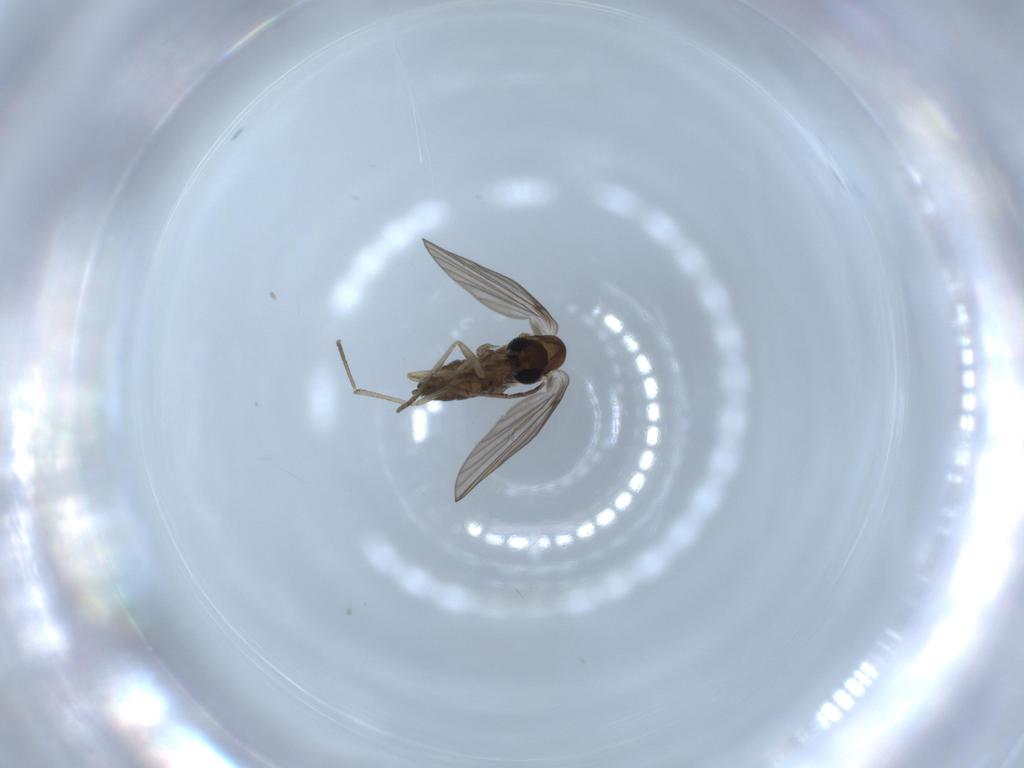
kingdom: Animalia
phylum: Arthropoda
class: Insecta
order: Diptera
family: Psychodidae
